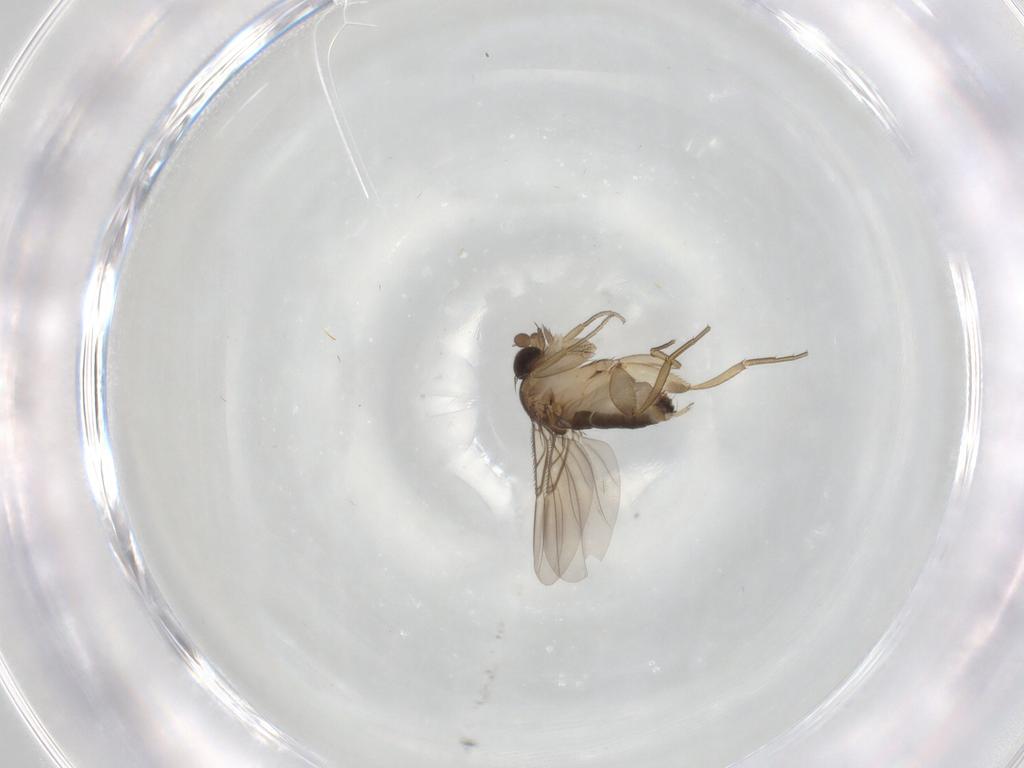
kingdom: Animalia
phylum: Arthropoda
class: Insecta
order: Diptera
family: Phoridae
